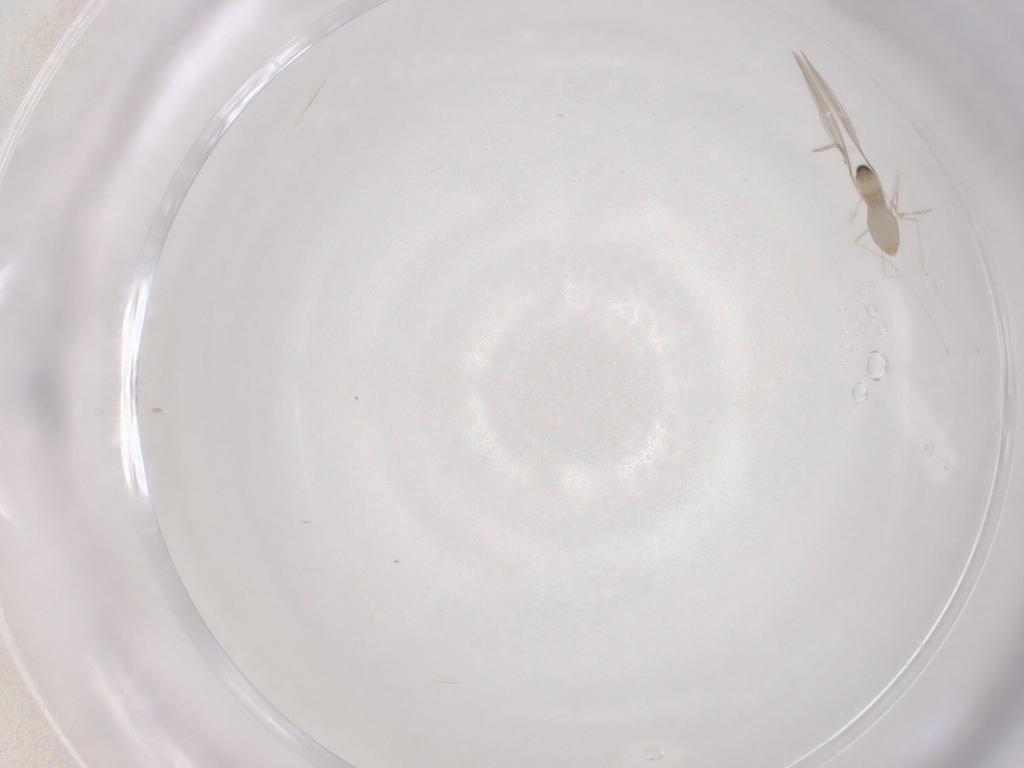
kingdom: Animalia
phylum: Arthropoda
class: Insecta
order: Diptera
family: Cecidomyiidae
